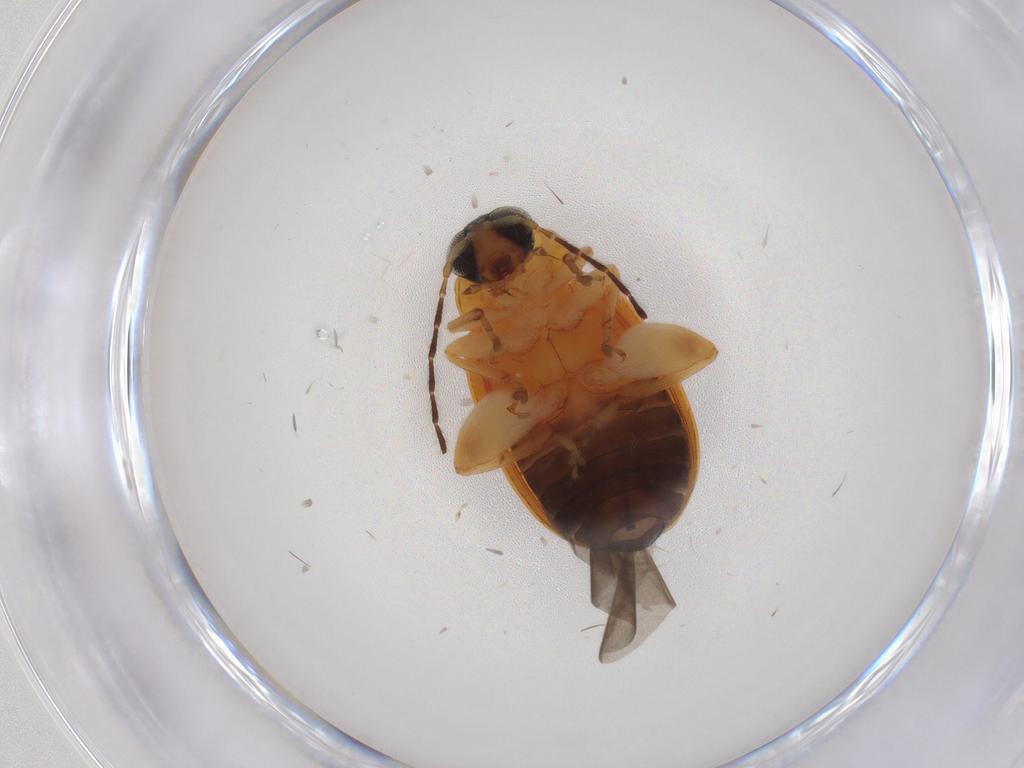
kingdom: Animalia
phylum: Arthropoda
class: Insecta
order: Coleoptera
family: Chrysomelidae
